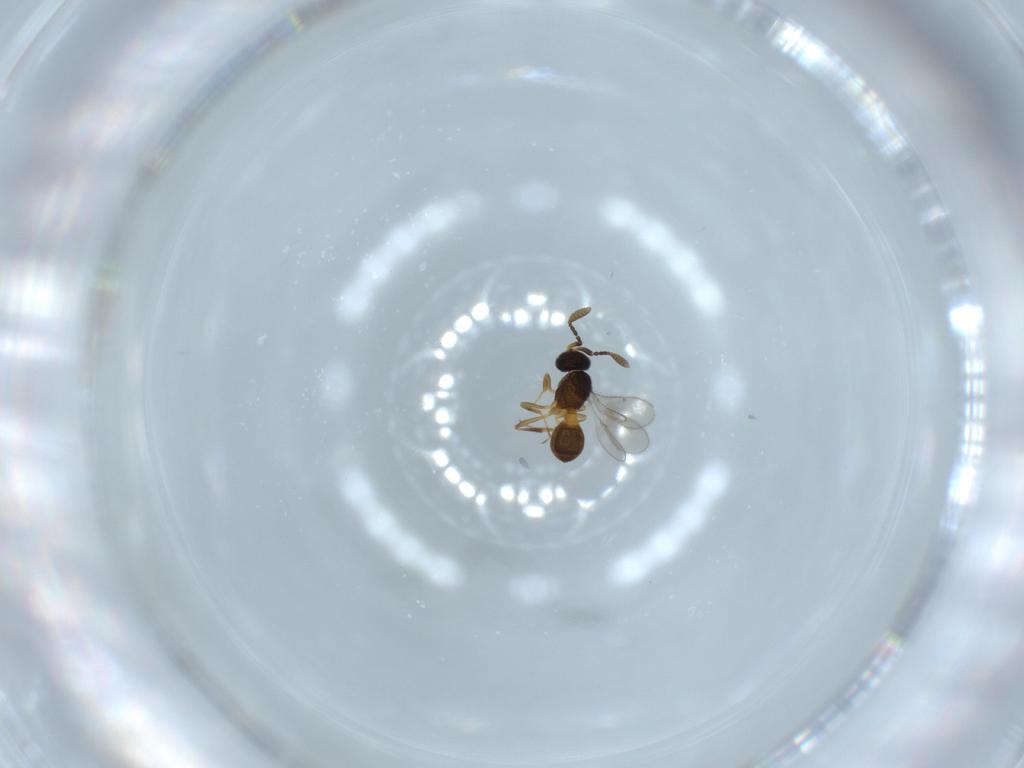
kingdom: Animalia
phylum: Arthropoda
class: Insecta
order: Hymenoptera
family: Scelionidae
